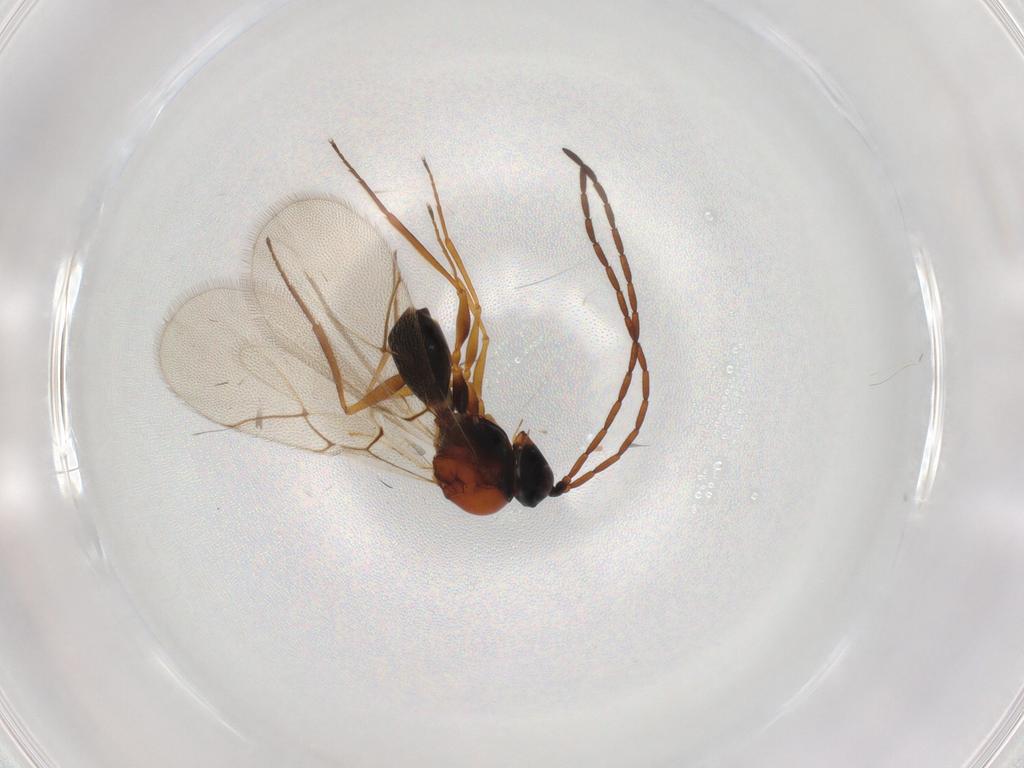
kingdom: Animalia
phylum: Arthropoda
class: Insecta
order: Hymenoptera
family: Figitidae
